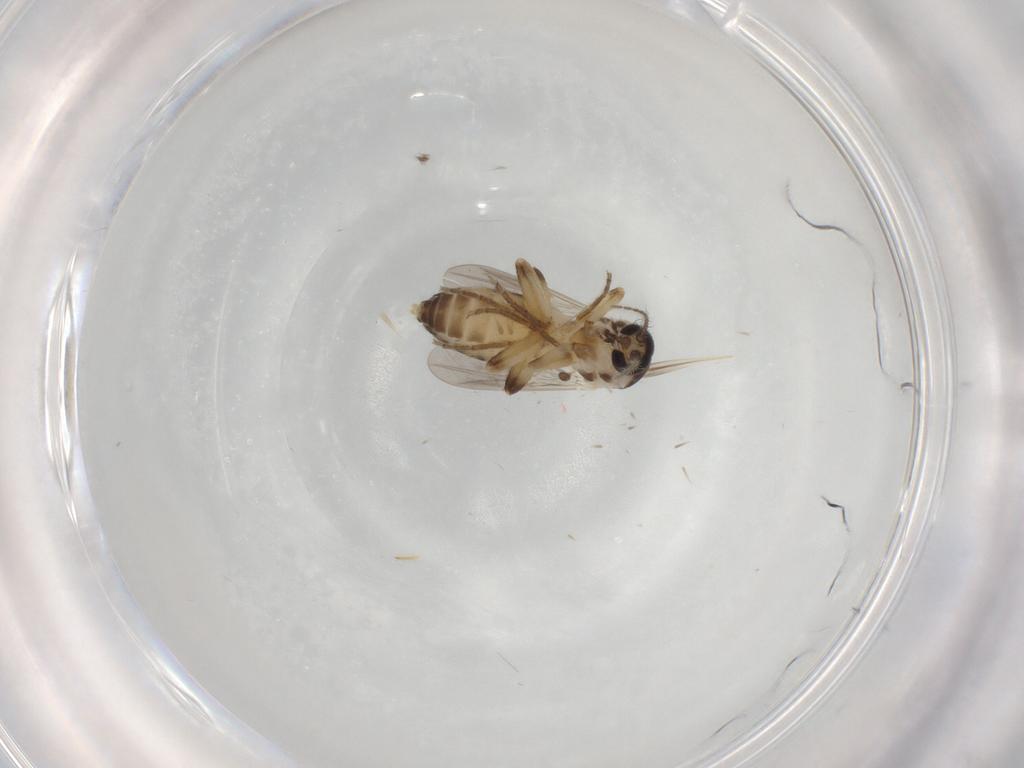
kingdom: Animalia
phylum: Arthropoda
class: Insecta
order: Diptera
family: Ceratopogonidae
